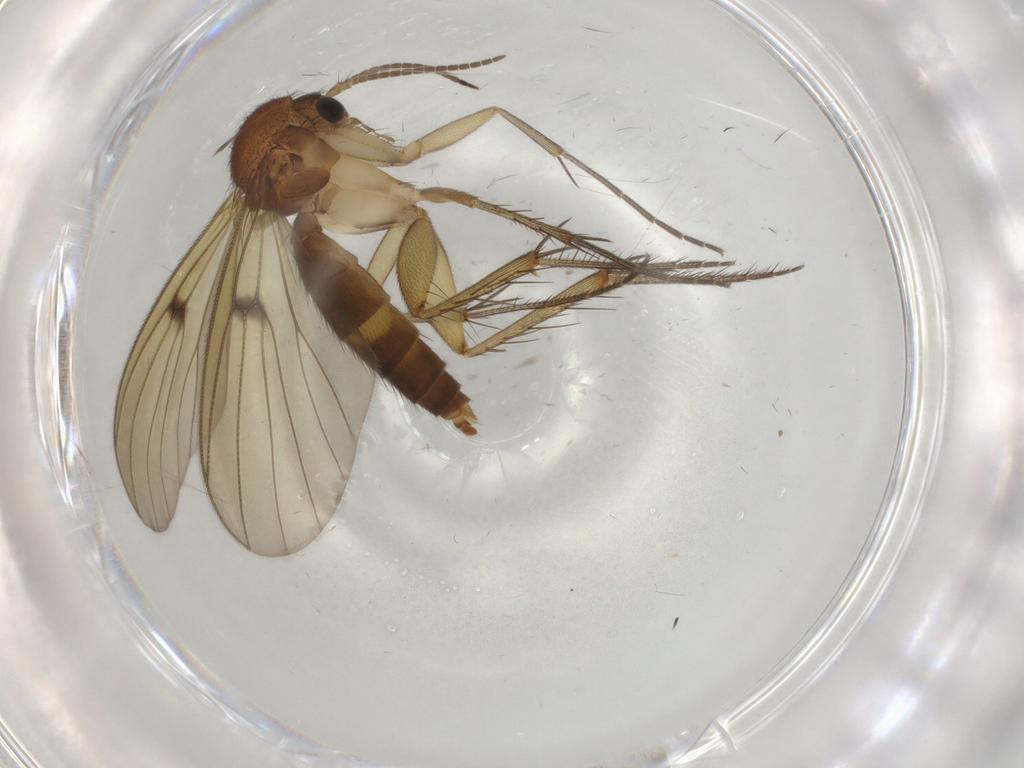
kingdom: Animalia
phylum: Arthropoda
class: Insecta
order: Diptera
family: Mycetophilidae
